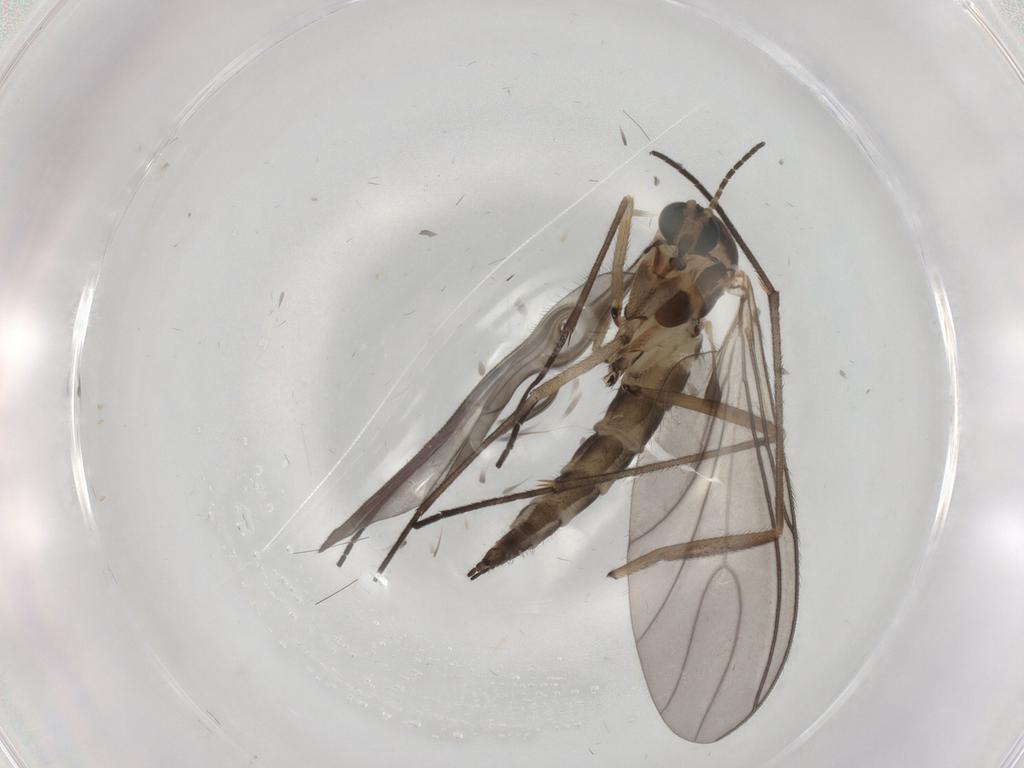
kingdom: Animalia
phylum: Arthropoda
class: Insecta
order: Diptera
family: Sciaridae
